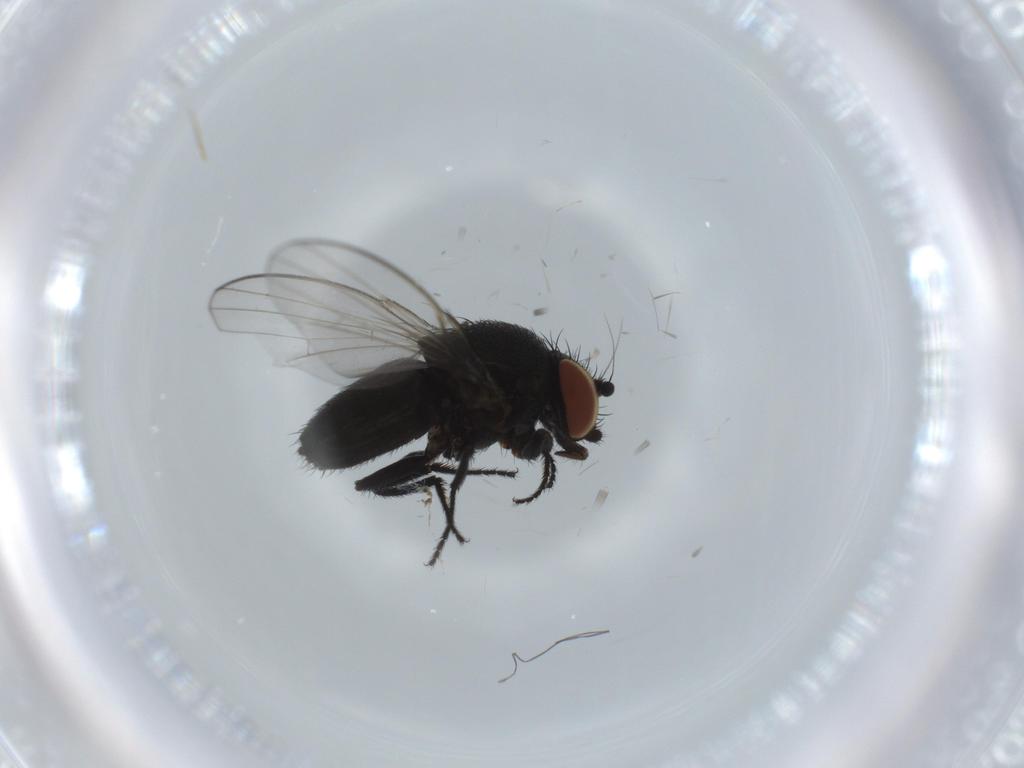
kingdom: Animalia
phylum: Arthropoda
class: Insecta
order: Diptera
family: Milichiidae
